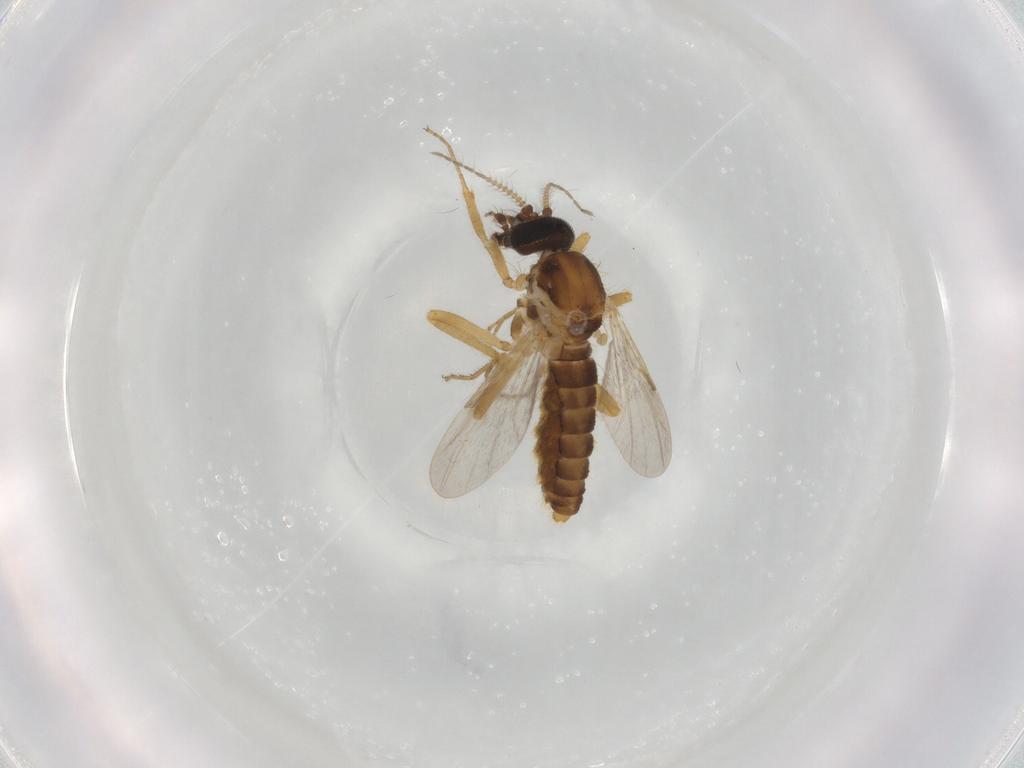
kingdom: Animalia
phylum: Arthropoda
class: Insecta
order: Diptera
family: Ceratopogonidae
